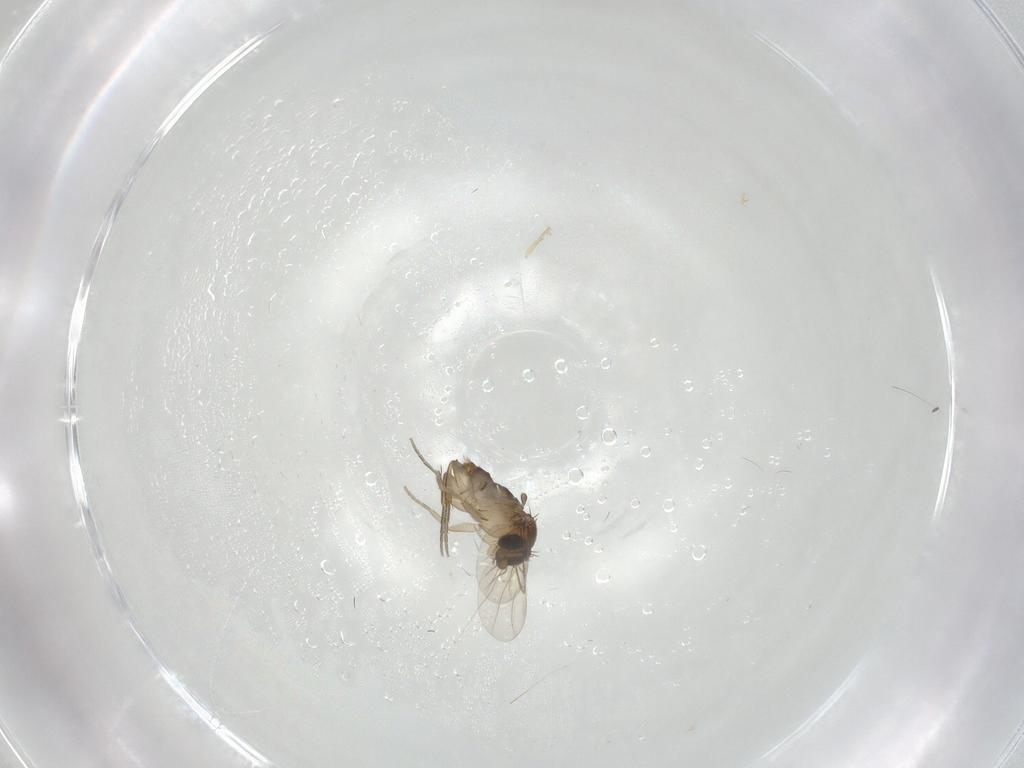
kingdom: Animalia
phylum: Arthropoda
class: Insecta
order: Diptera
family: Phoridae
